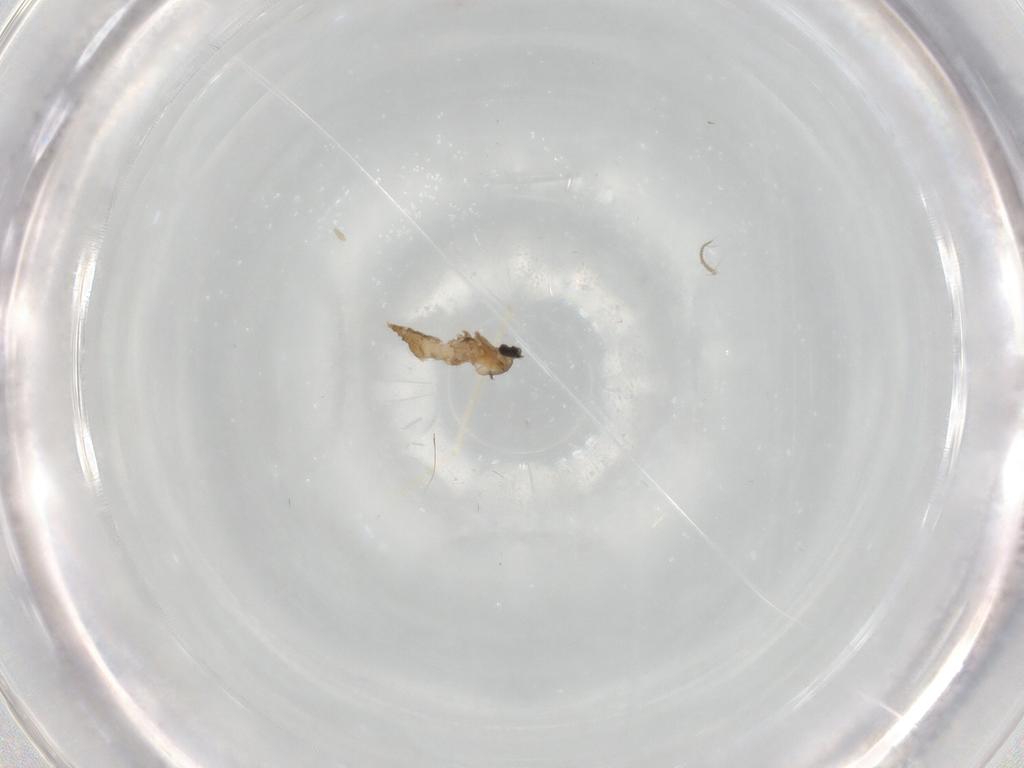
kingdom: Animalia
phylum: Arthropoda
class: Insecta
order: Diptera
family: Cecidomyiidae
